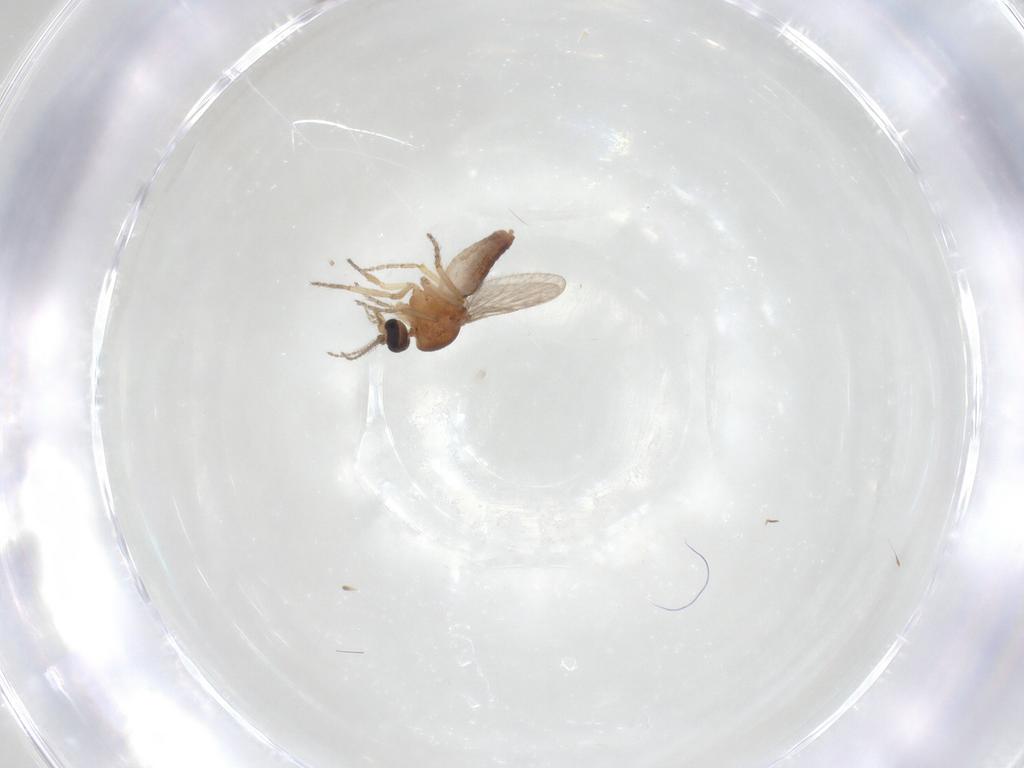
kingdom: Animalia
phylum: Arthropoda
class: Insecta
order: Diptera
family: Ceratopogonidae
